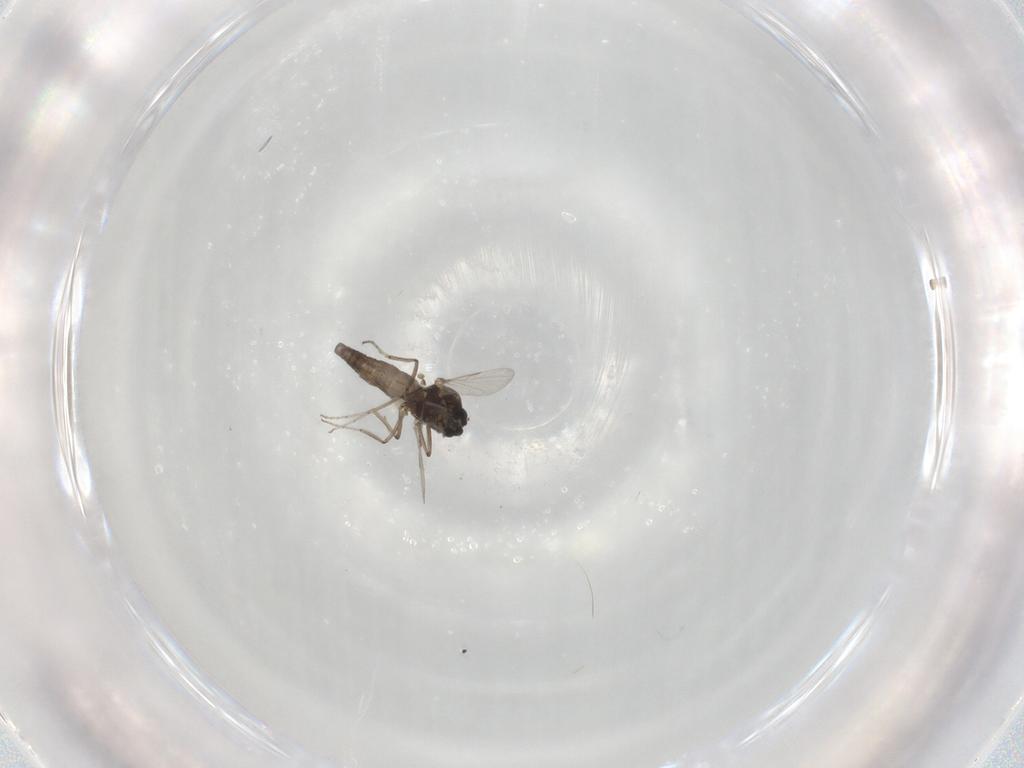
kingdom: Animalia
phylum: Arthropoda
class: Insecta
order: Diptera
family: Ceratopogonidae
